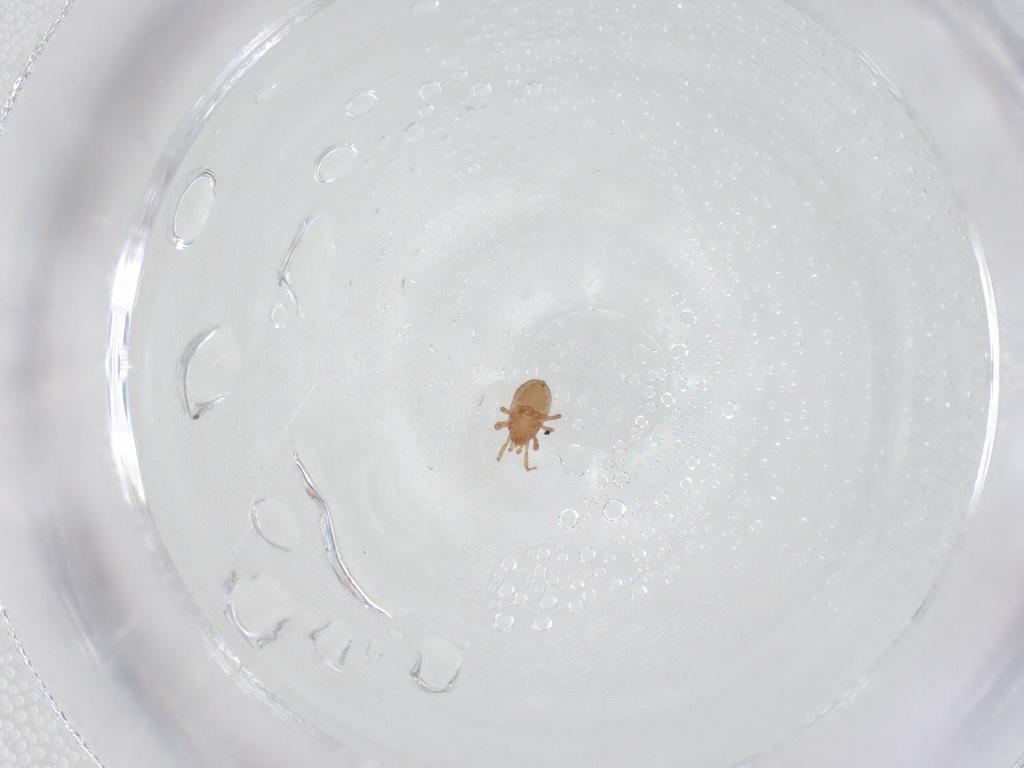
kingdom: Animalia
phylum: Arthropoda
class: Arachnida
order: Mesostigmata
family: Ologamasidae
